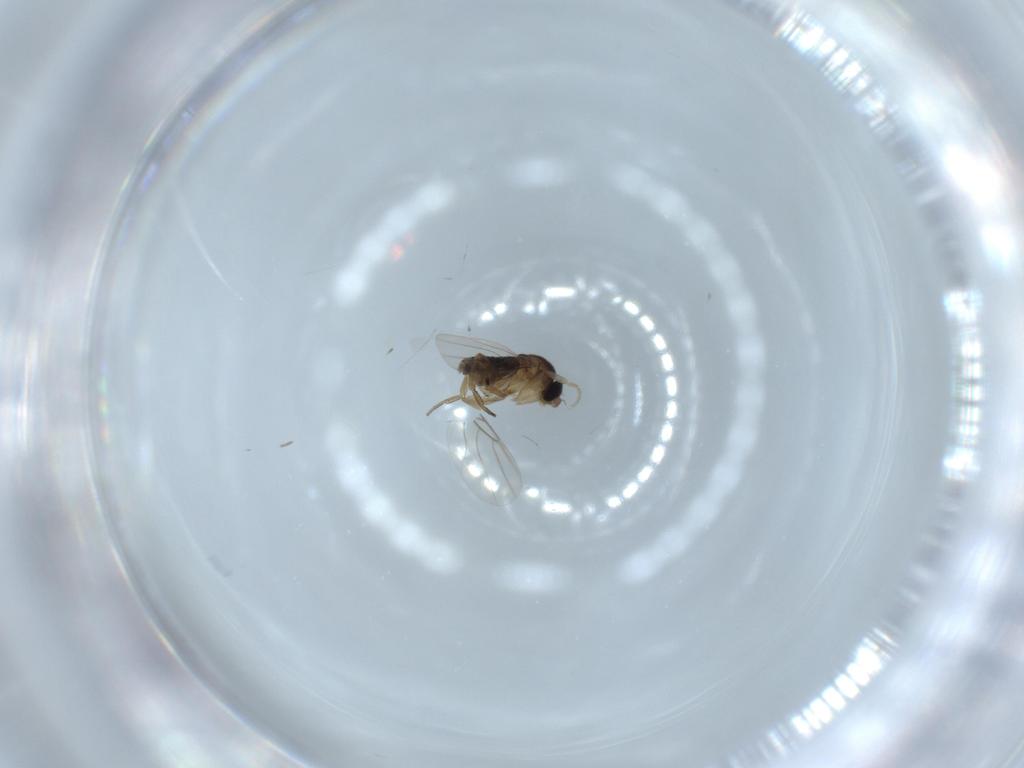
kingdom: Animalia
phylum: Arthropoda
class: Insecta
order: Diptera
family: Phoridae
